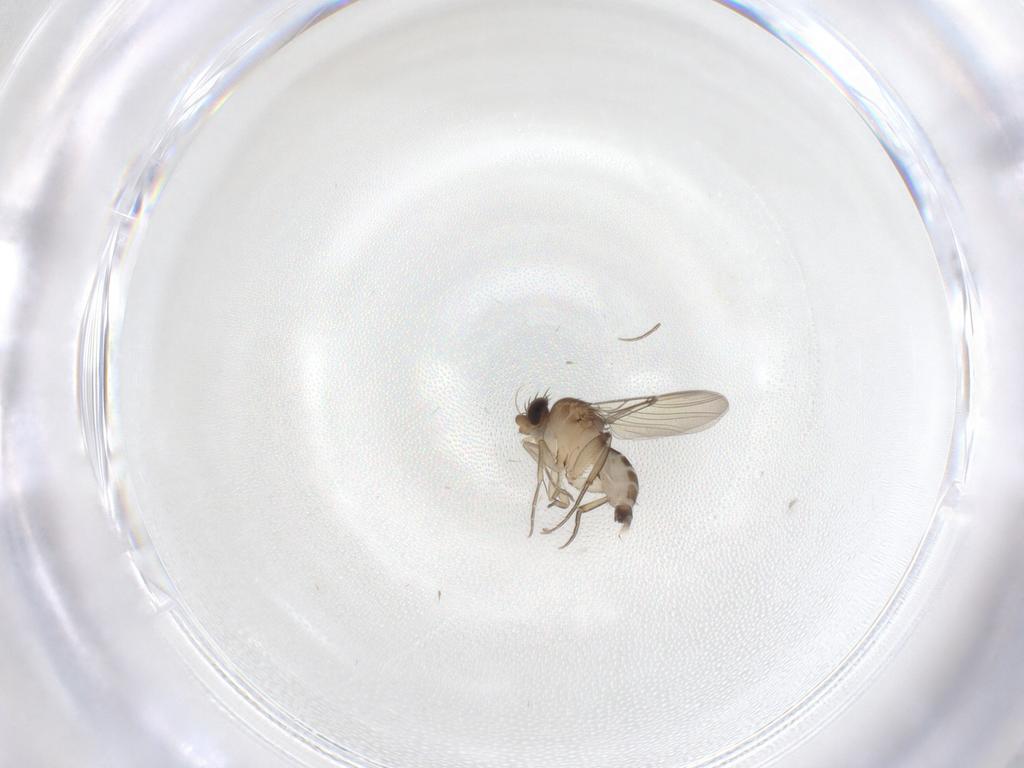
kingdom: Animalia
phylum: Arthropoda
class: Insecta
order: Diptera
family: Phoridae
